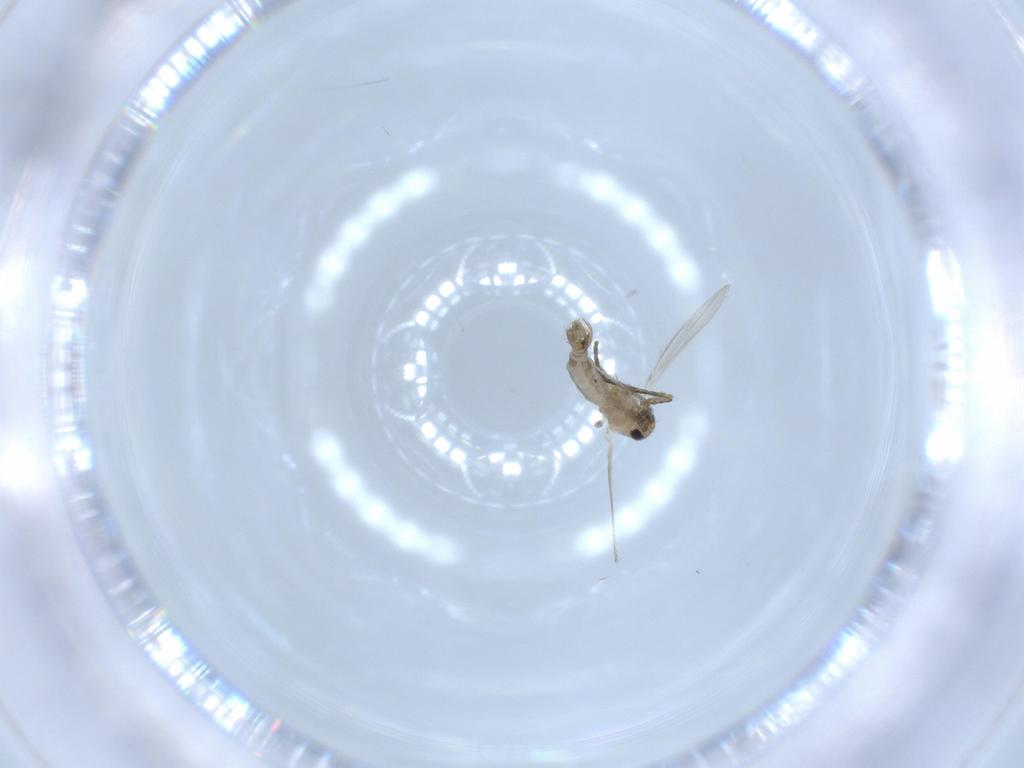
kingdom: Animalia
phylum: Arthropoda
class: Insecta
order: Diptera
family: Psychodidae
